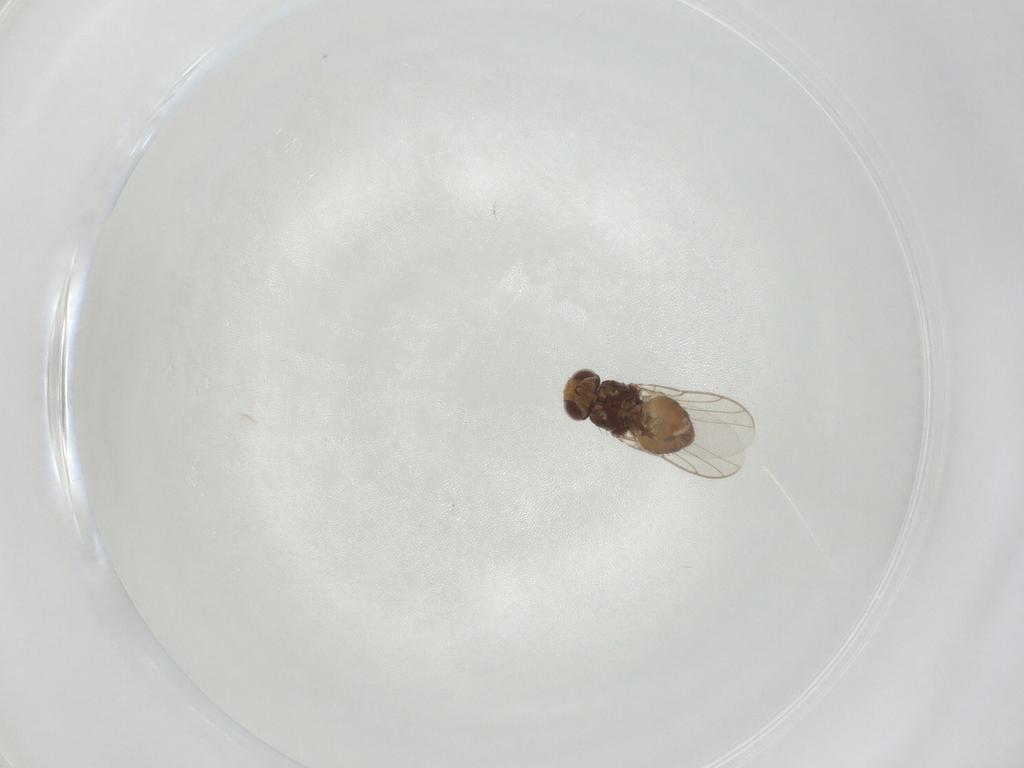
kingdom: Animalia
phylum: Arthropoda
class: Insecta
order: Diptera
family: Chloropidae
